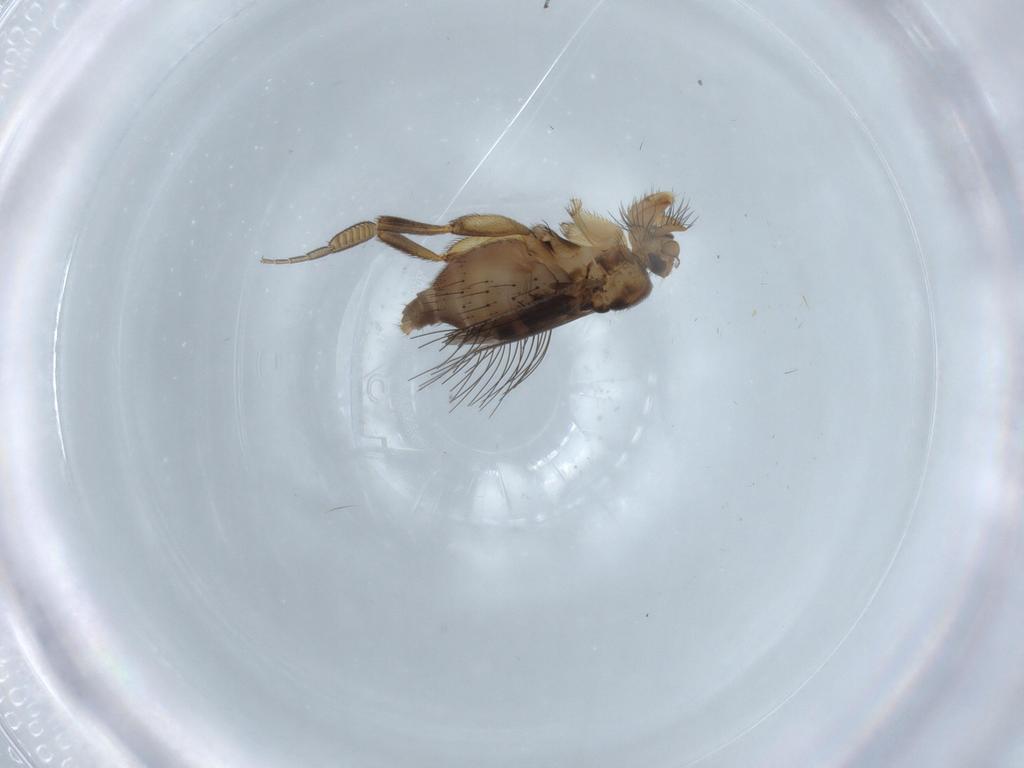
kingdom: Animalia
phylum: Arthropoda
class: Insecta
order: Diptera
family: Phoridae
